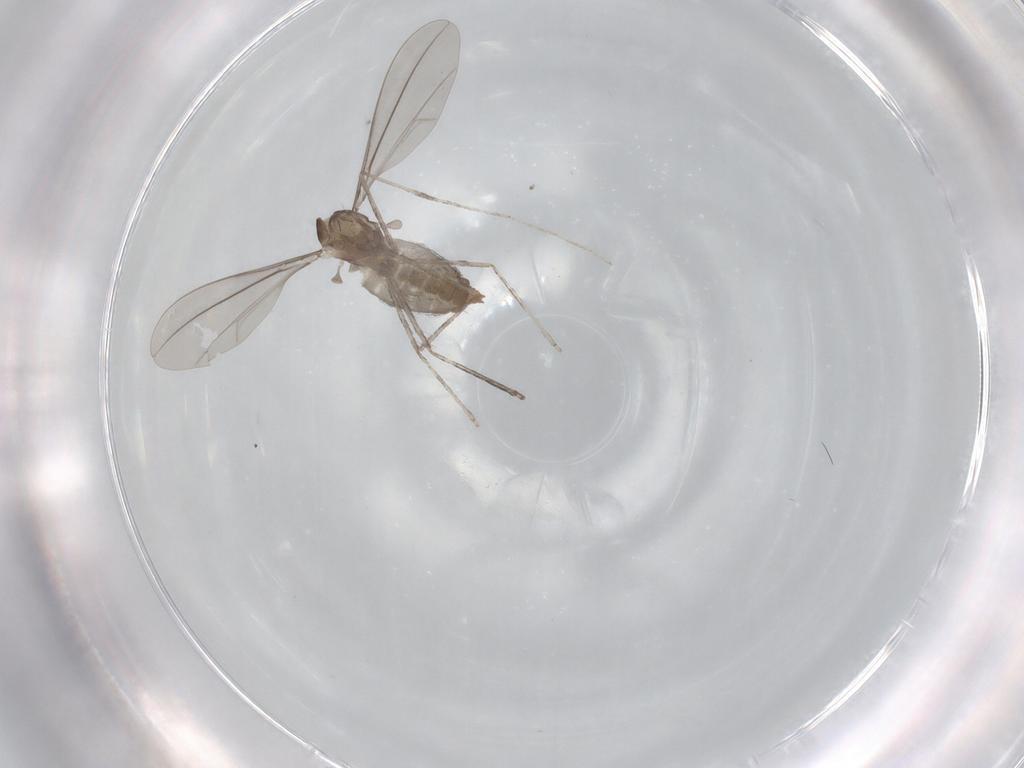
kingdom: Animalia
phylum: Arthropoda
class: Insecta
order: Diptera
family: Cecidomyiidae
